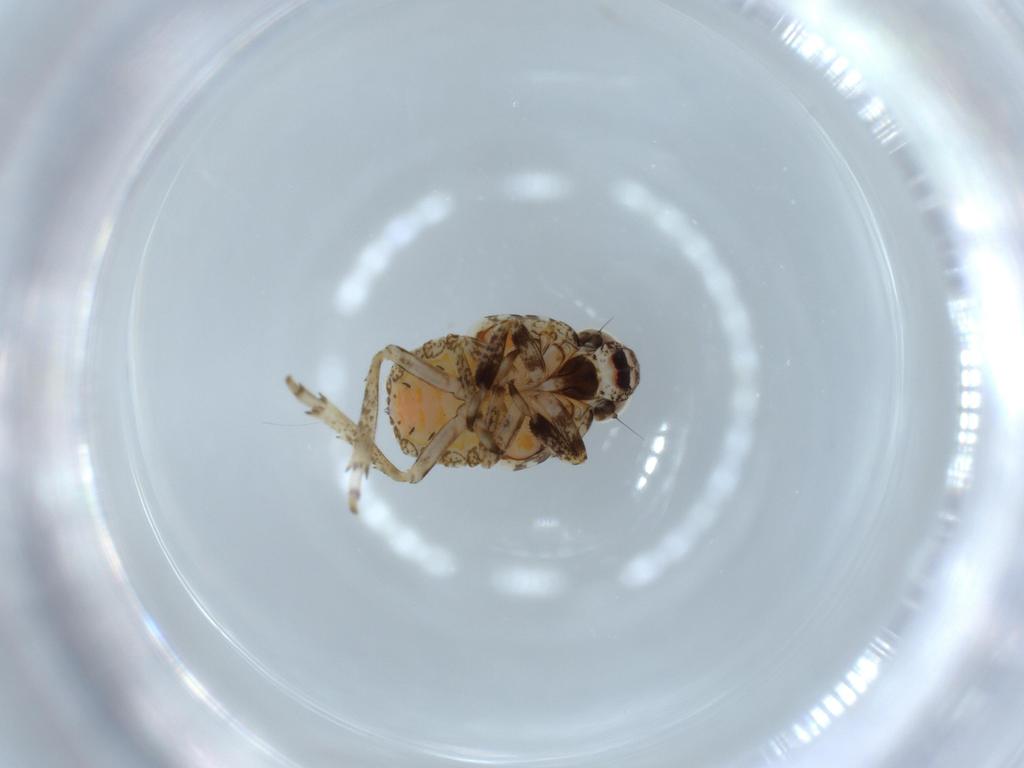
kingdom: Animalia
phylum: Arthropoda
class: Insecta
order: Hemiptera
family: Issidae
